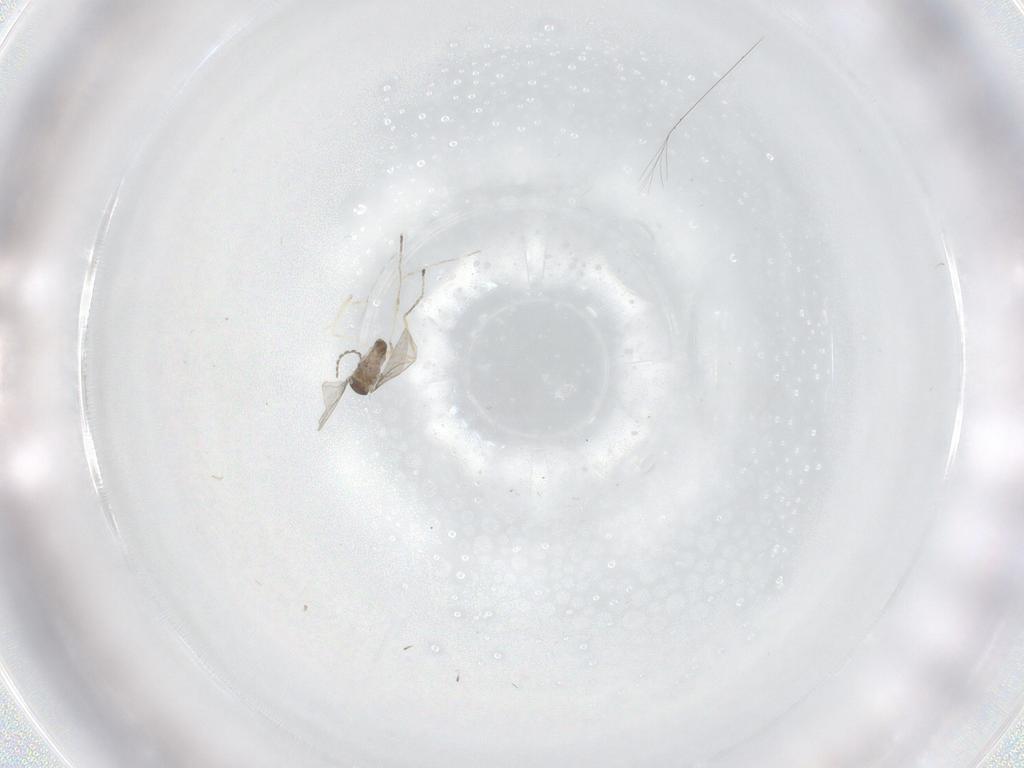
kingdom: Animalia
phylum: Arthropoda
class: Insecta
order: Diptera
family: Cecidomyiidae
